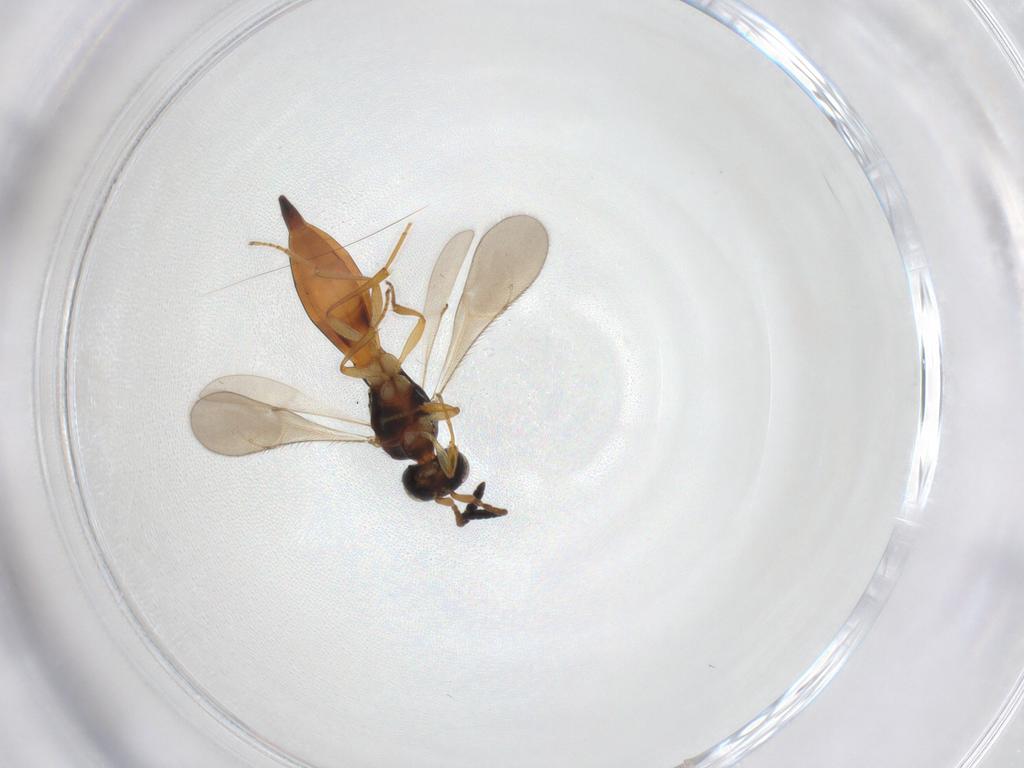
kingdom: Animalia
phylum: Arthropoda
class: Insecta
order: Hymenoptera
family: Scelionidae
